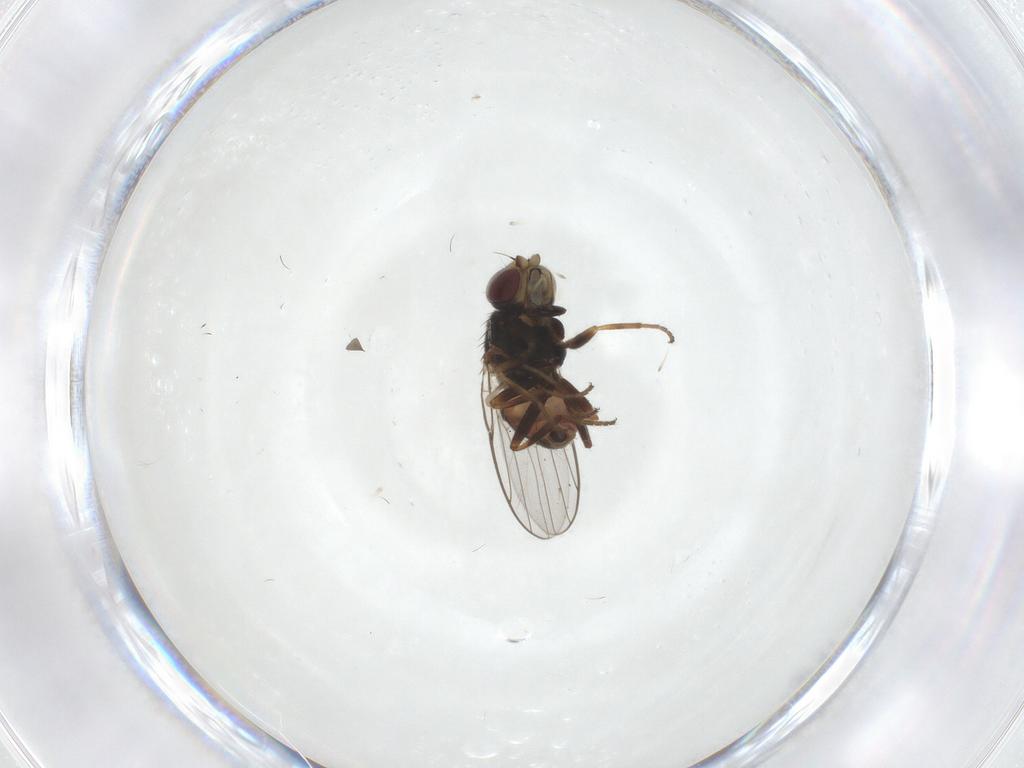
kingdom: Animalia
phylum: Arthropoda
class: Insecta
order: Diptera
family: Chloropidae
